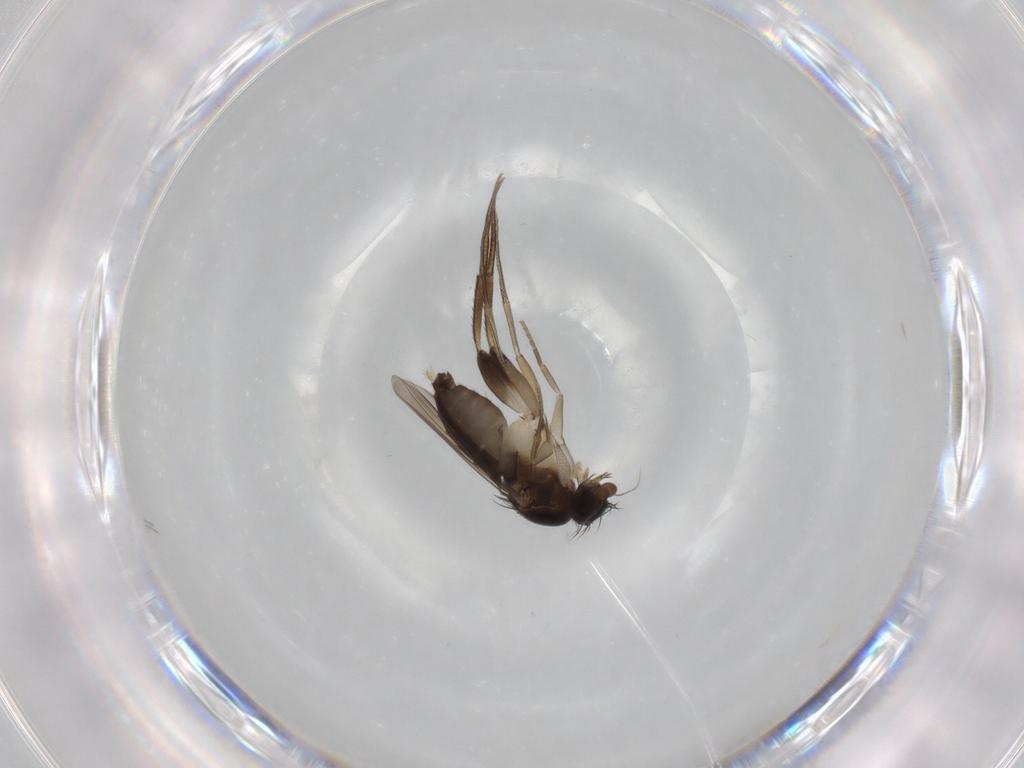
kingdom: Animalia
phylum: Arthropoda
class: Insecta
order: Diptera
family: Phoridae
